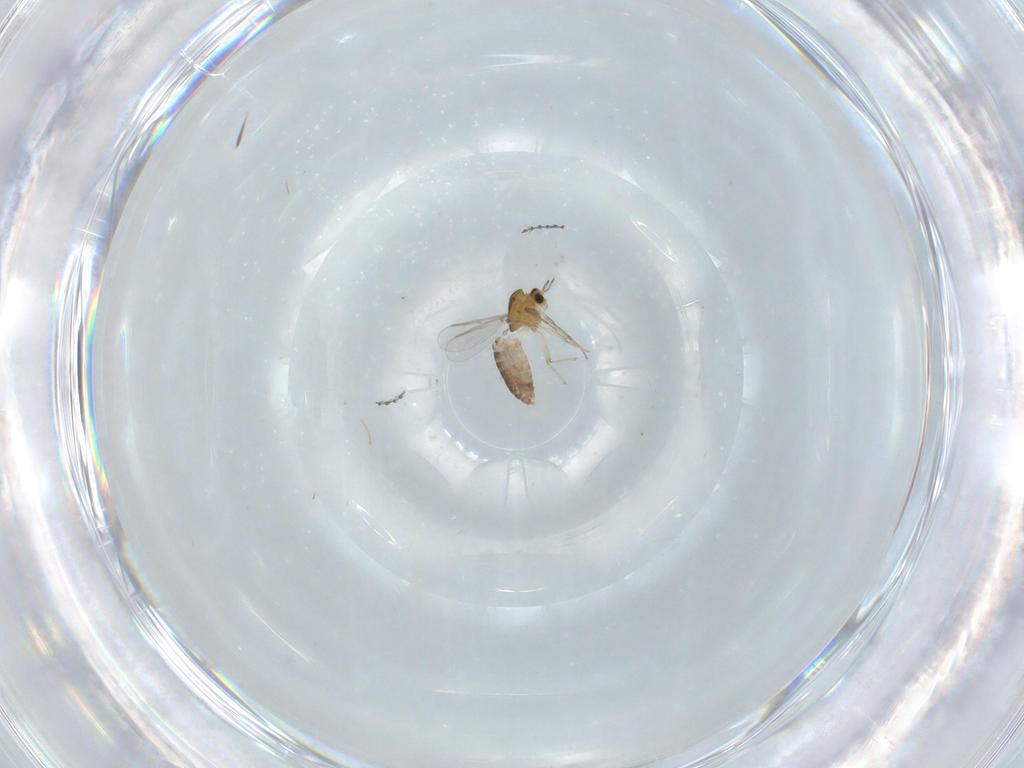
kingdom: Animalia
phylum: Arthropoda
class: Insecta
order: Diptera
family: Cecidomyiidae
